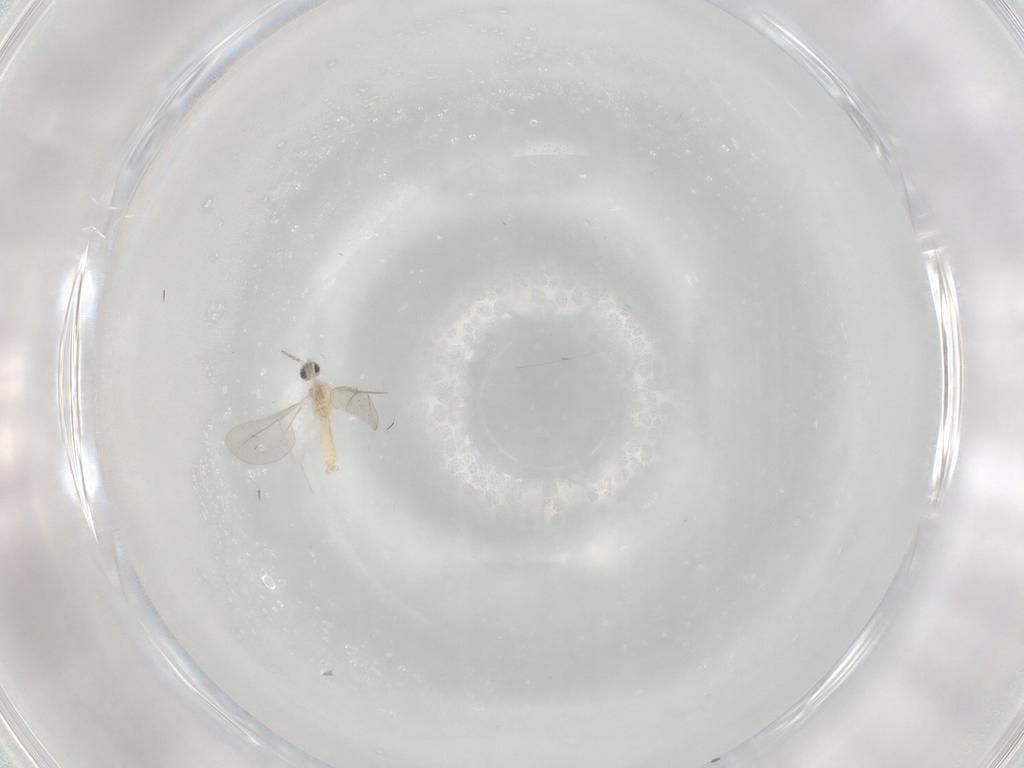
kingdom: Animalia
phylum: Arthropoda
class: Insecta
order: Diptera
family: Cecidomyiidae
